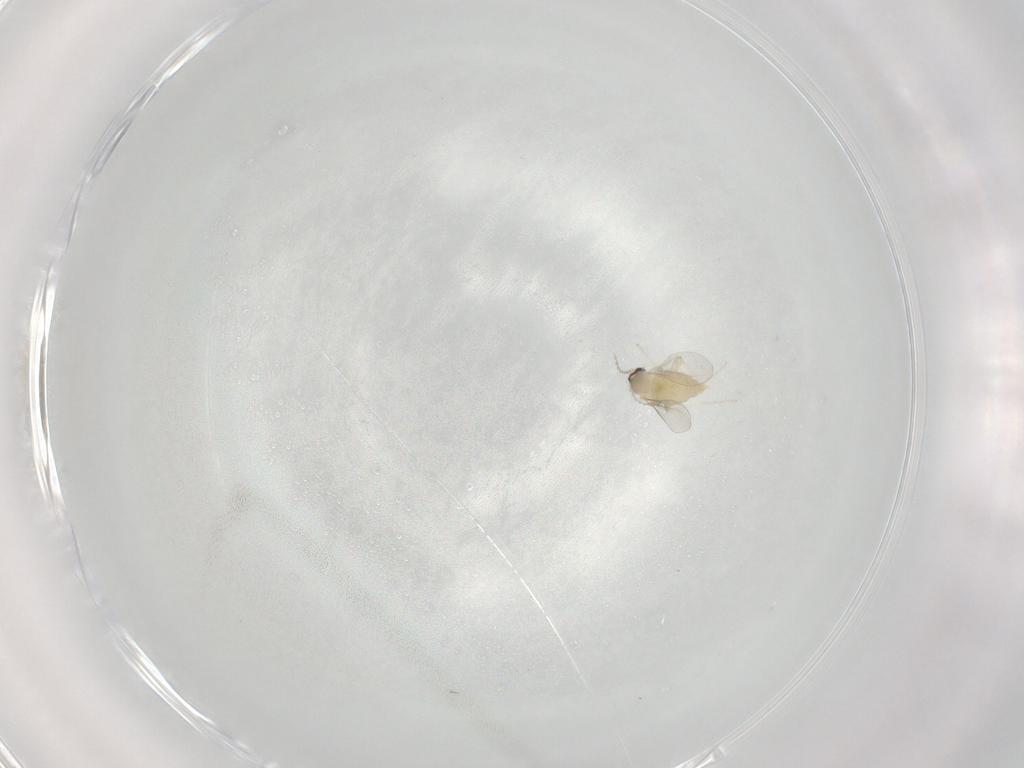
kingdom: Animalia
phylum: Arthropoda
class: Insecta
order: Diptera
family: Cecidomyiidae
